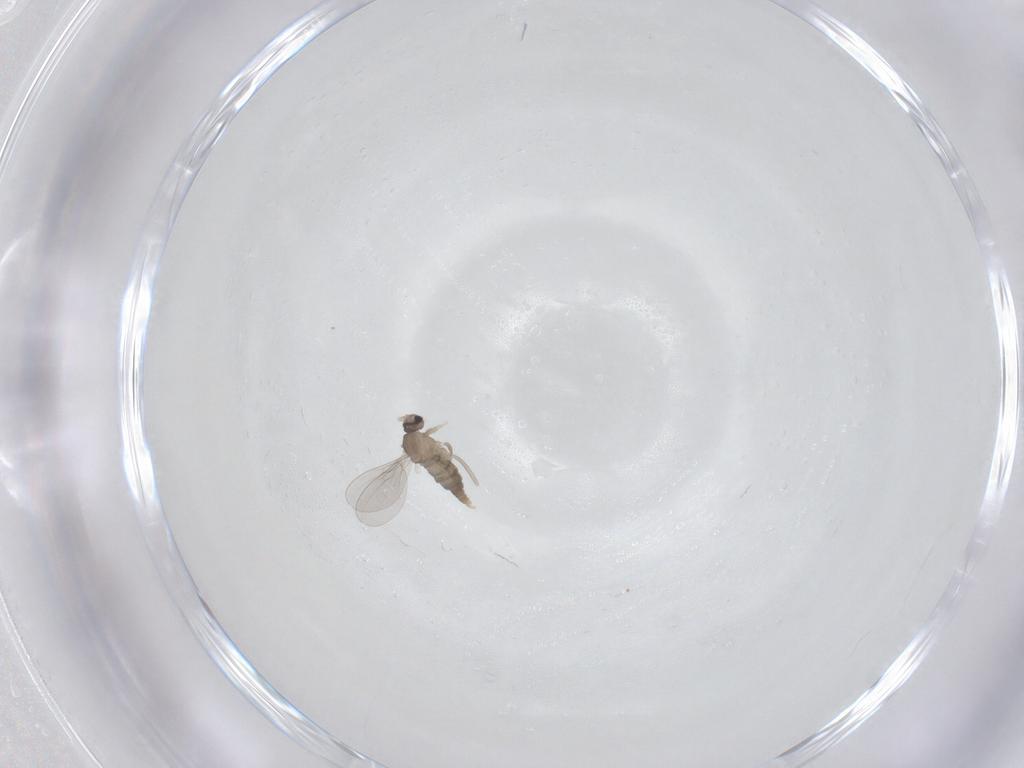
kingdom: Animalia
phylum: Arthropoda
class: Insecta
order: Diptera
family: Cecidomyiidae
